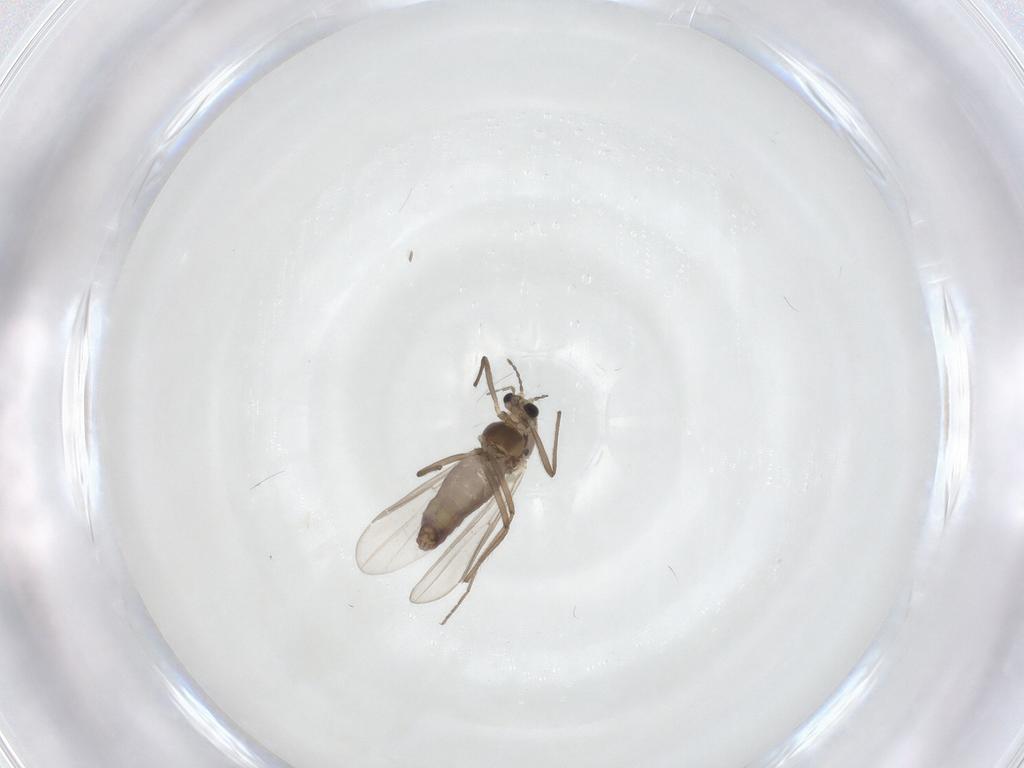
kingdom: Animalia
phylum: Arthropoda
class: Insecta
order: Diptera
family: Chironomidae
